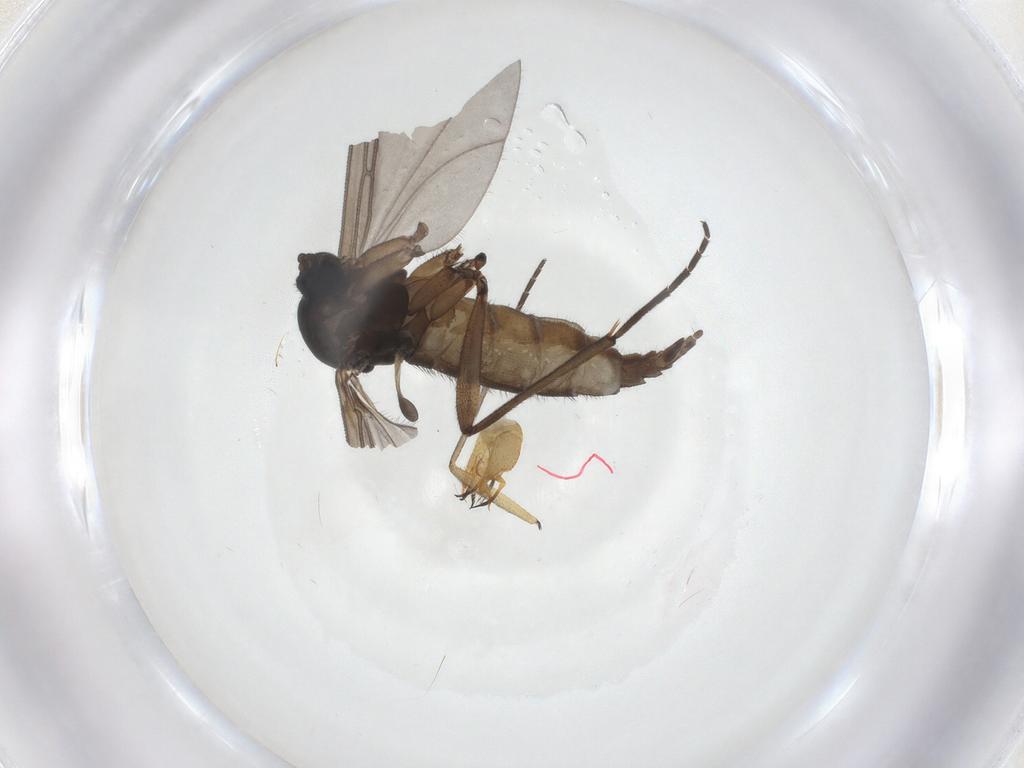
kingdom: Animalia
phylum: Arthropoda
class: Insecta
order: Diptera
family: Sciaridae
